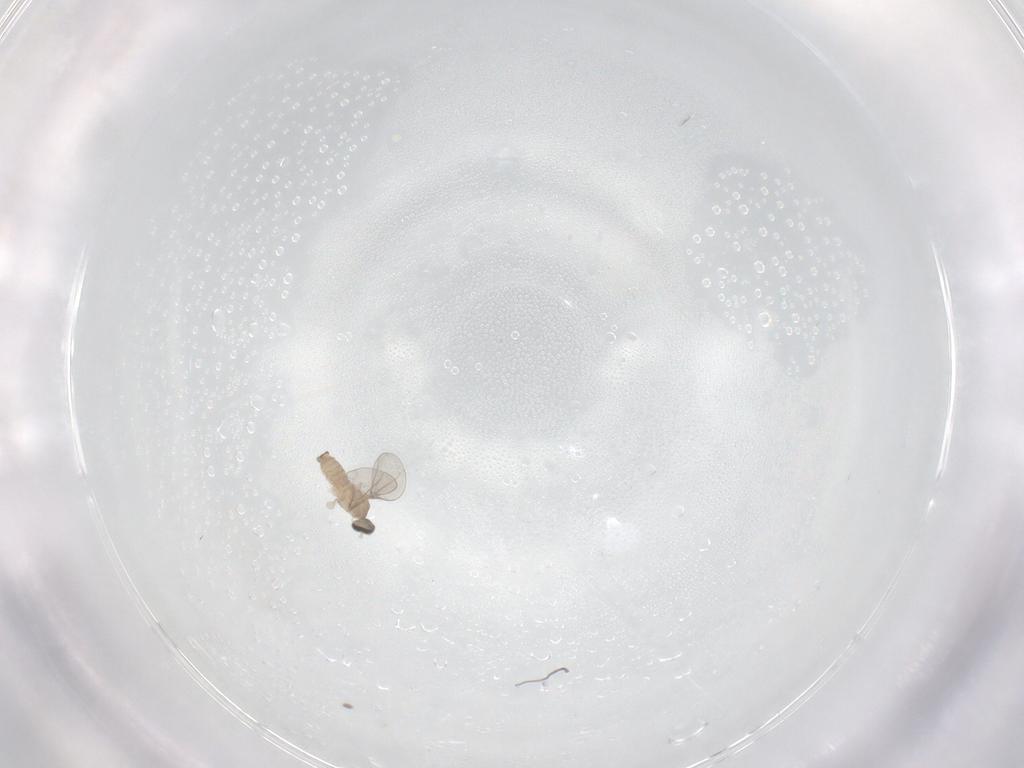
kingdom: Animalia
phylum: Arthropoda
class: Insecta
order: Diptera
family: Cecidomyiidae
